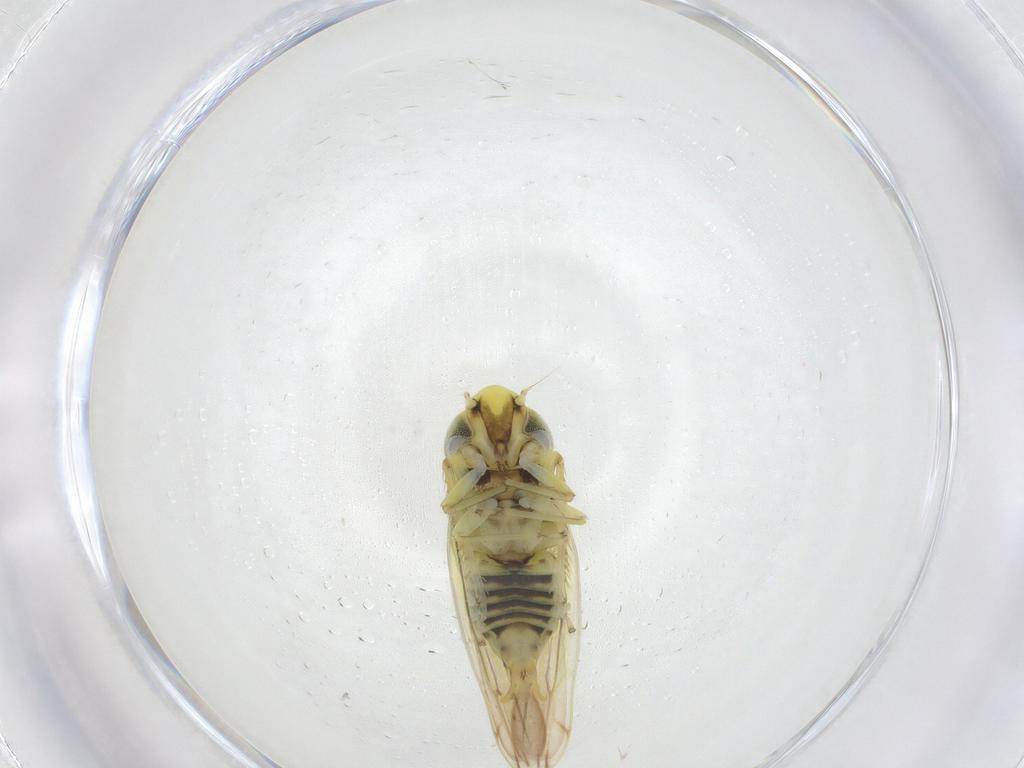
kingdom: Animalia
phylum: Arthropoda
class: Insecta
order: Hemiptera
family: Cicadellidae
